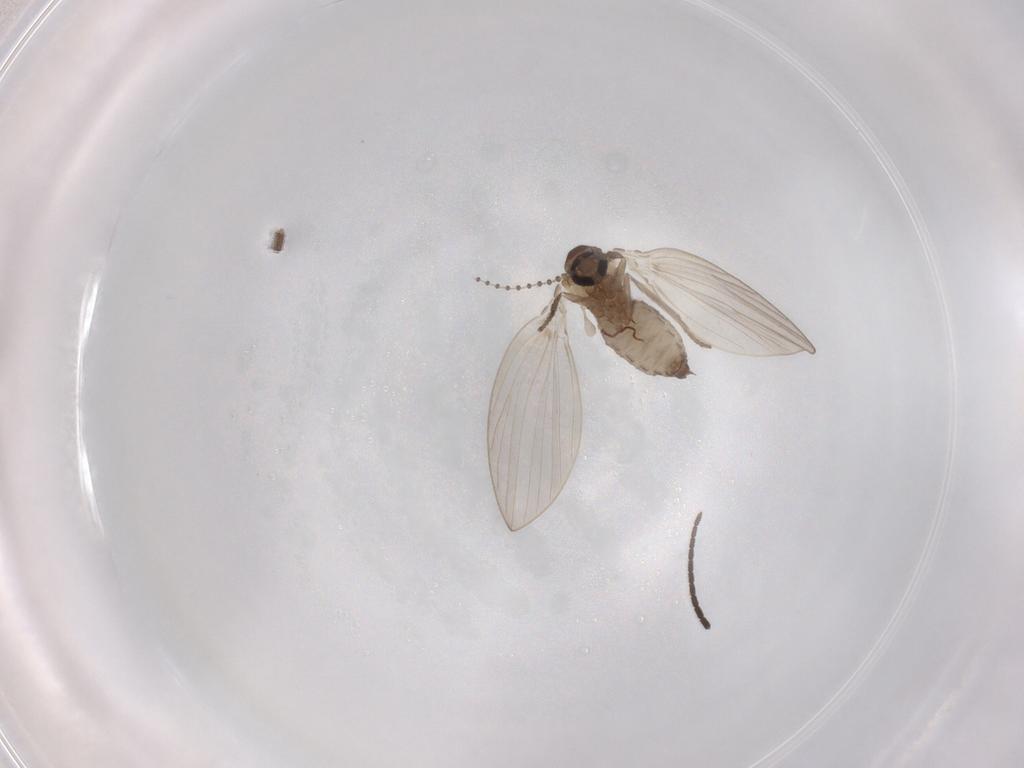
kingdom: Animalia
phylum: Arthropoda
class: Insecta
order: Diptera
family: Psychodidae
